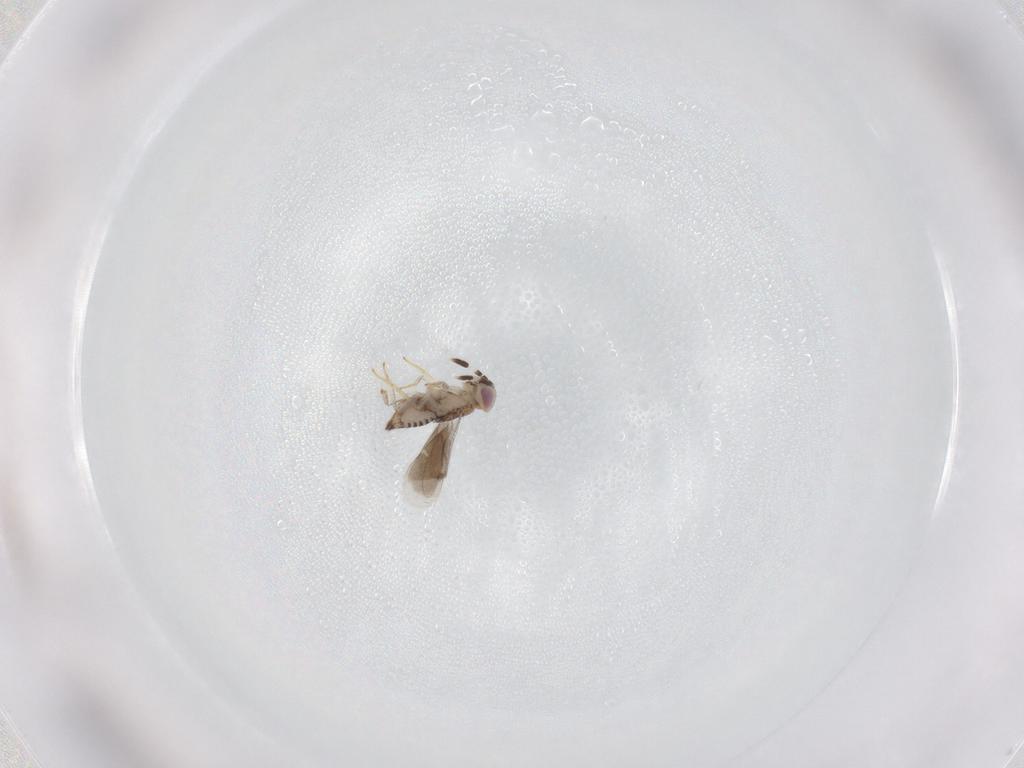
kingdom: Animalia
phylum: Arthropoda
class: Insecta
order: Hymenoptera
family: Aphelinidae
